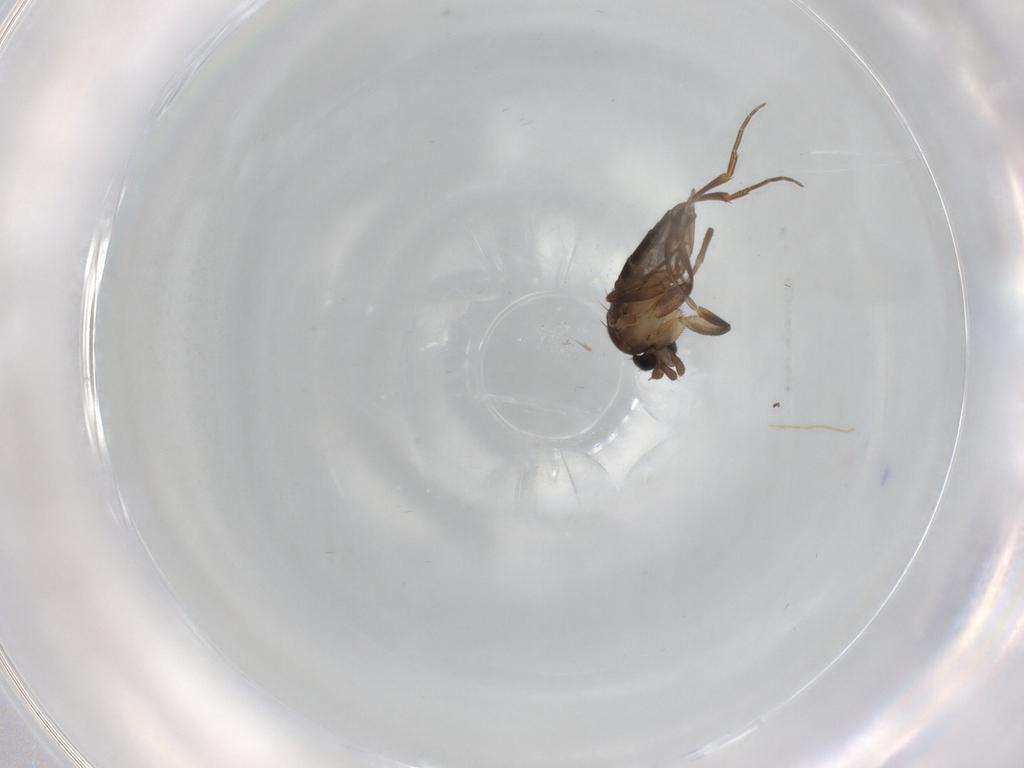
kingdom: Animalia
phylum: Arthropoda
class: Insecta
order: Diptera
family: Phoridae
